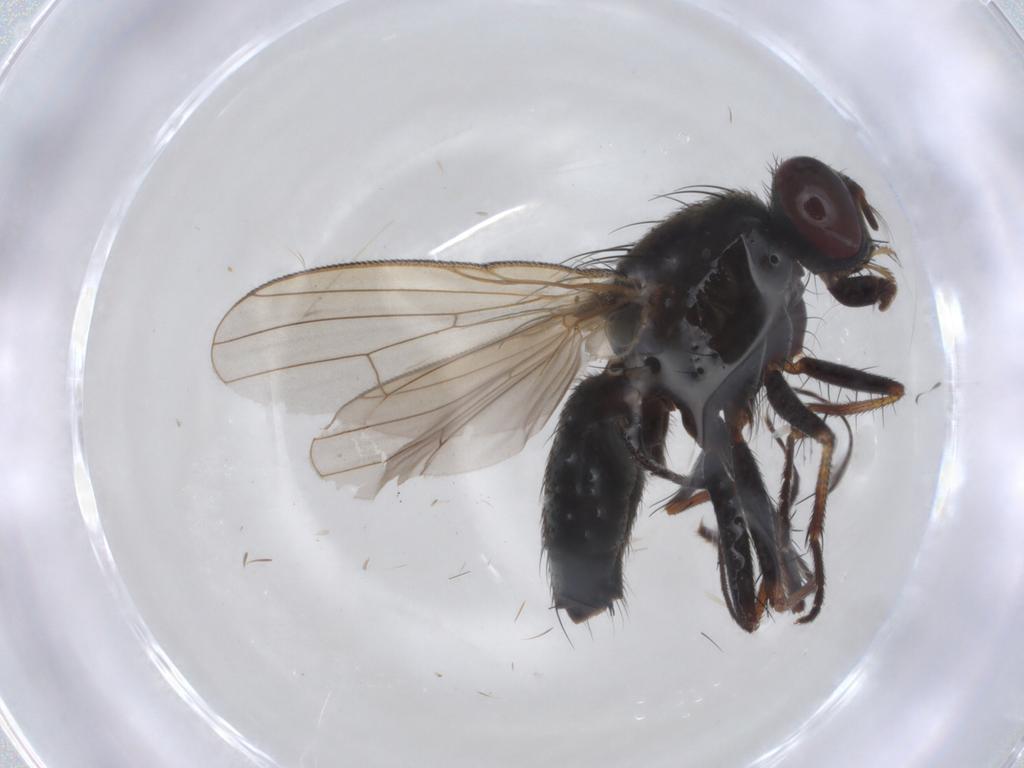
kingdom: Animalia
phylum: Arthropoda
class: Insecta
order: Diptera
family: Muscidae
